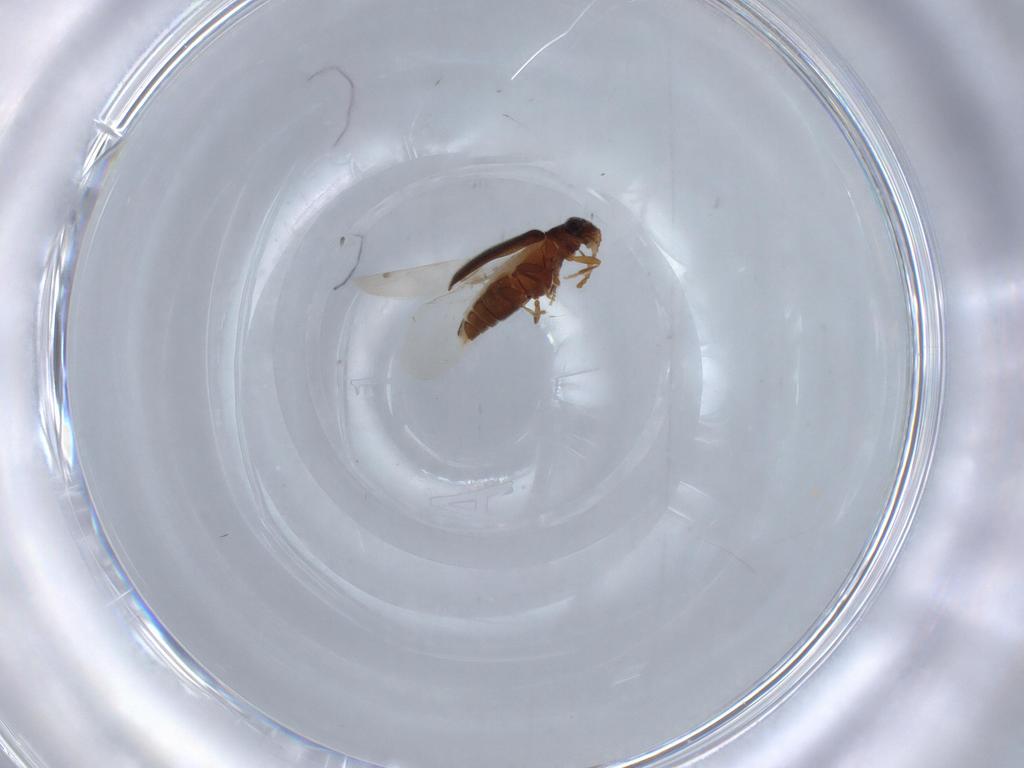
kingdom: Animalia
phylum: Arthropoda
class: Insecta
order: Coleoptera
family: Aderidae
